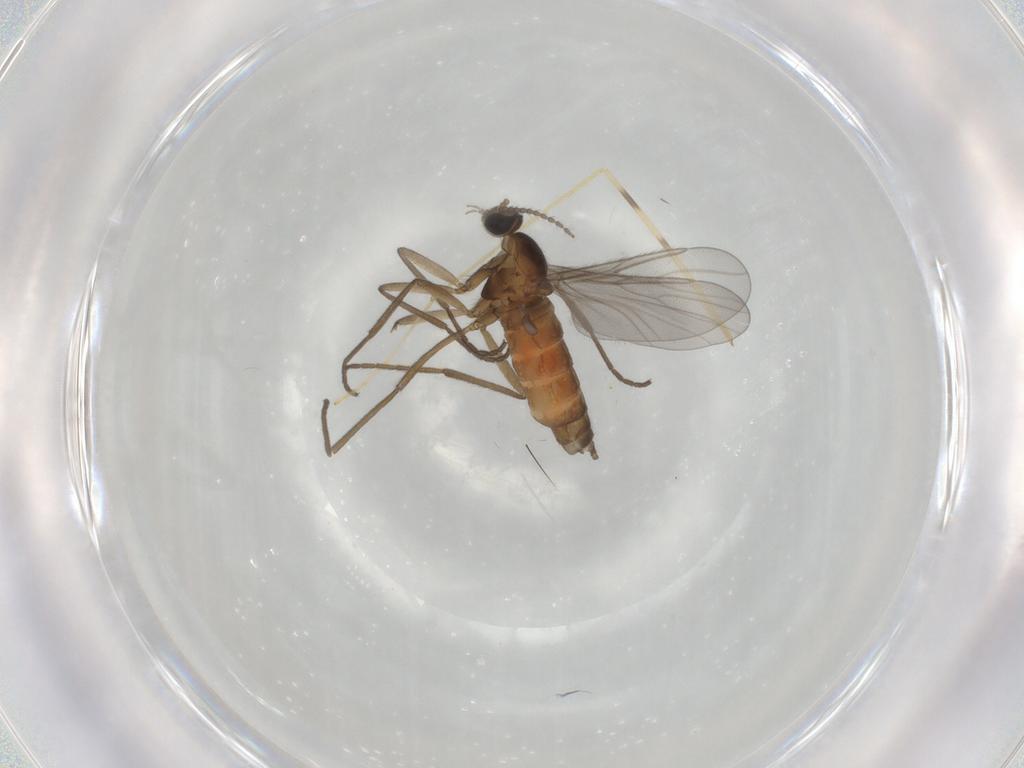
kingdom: Animalia
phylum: Arthropoda
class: Insecta
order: Diptera
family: Limoniidae
